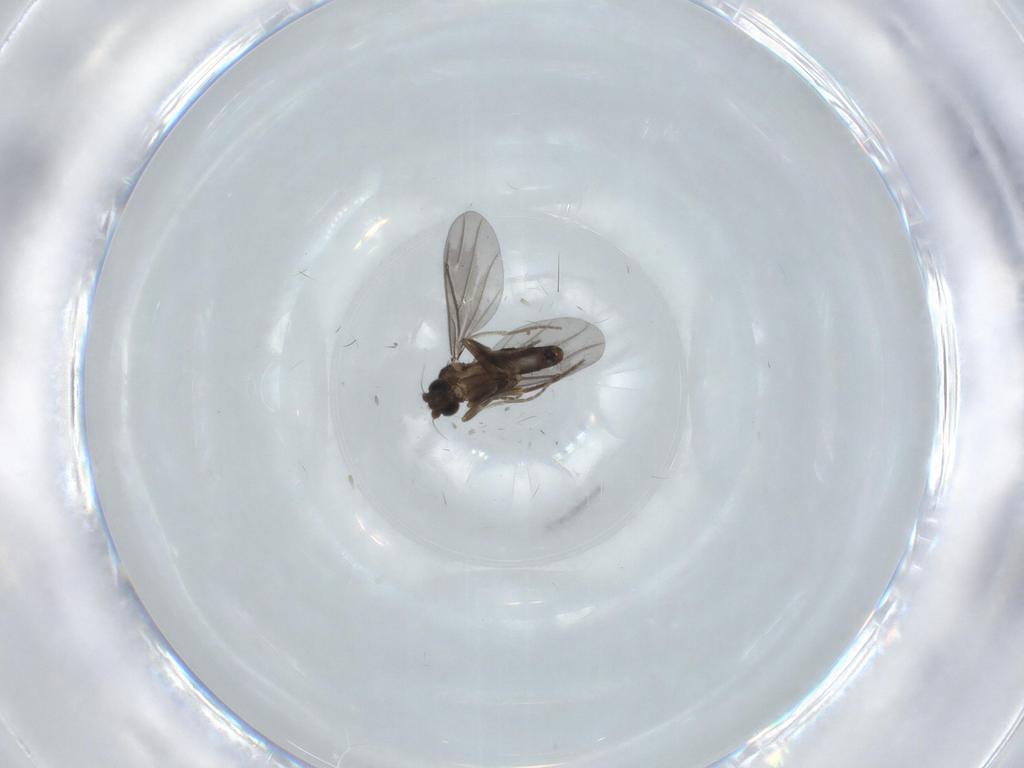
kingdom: Animalia
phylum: Arthropoda
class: Insecta
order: Diptera
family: Phoridae
